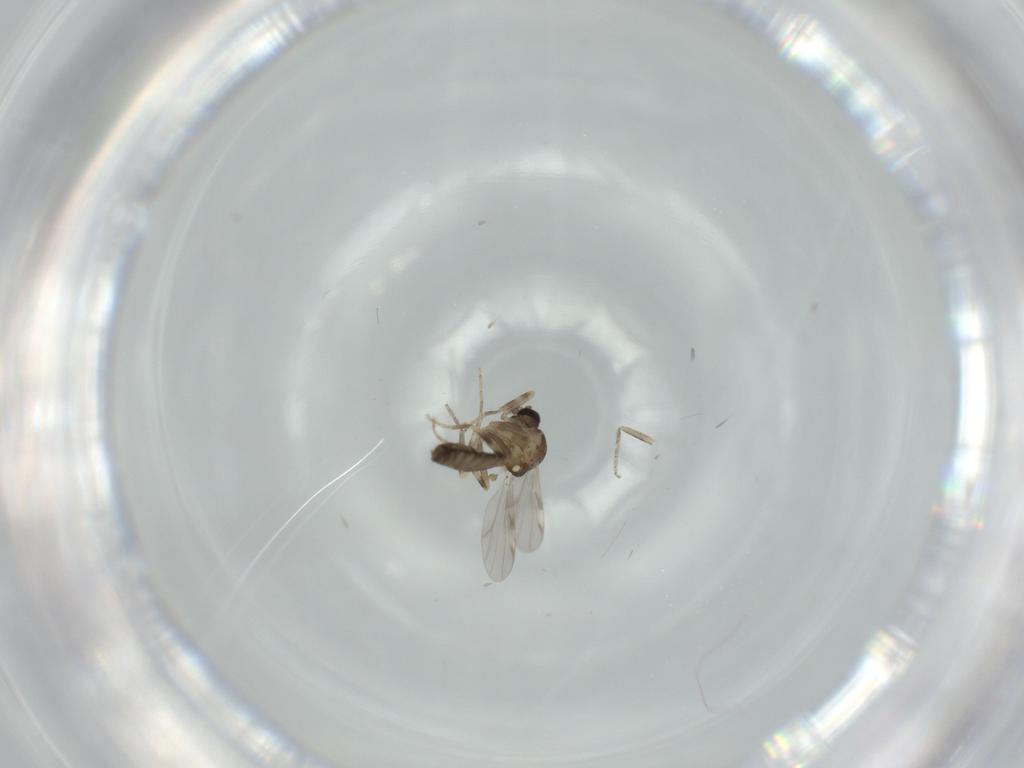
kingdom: Animalia
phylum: Arthropoda
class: Insecta
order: Diptera
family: Ceratopogonidae
